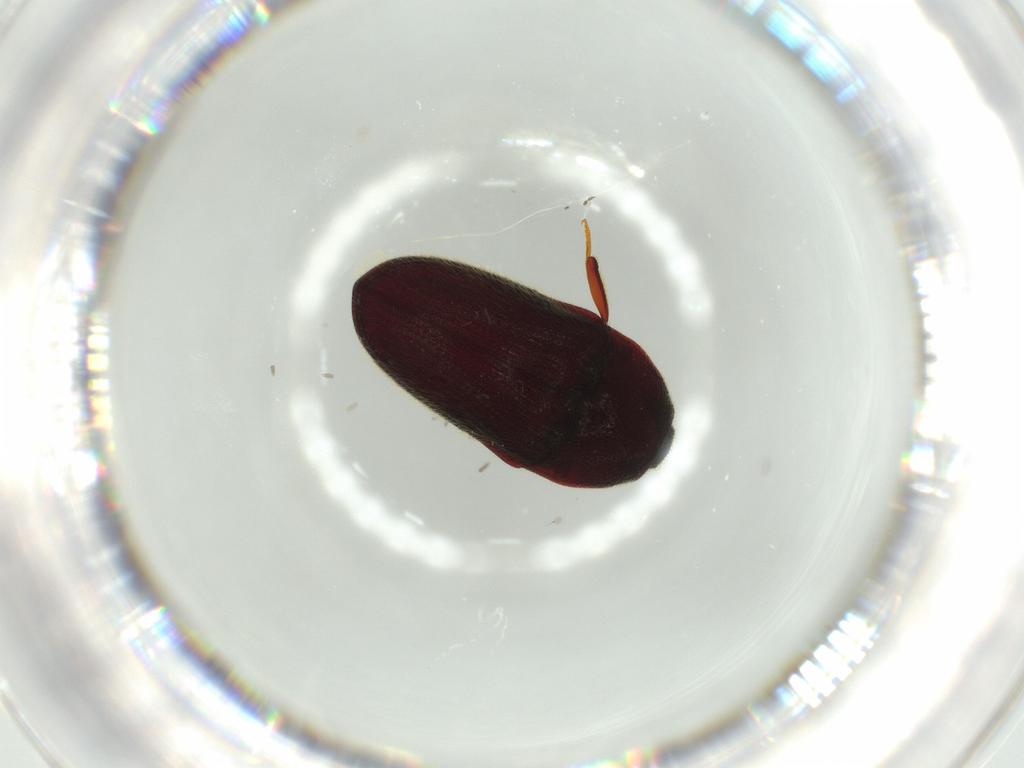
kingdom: Animalia
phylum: Arthropoda
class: Insecta
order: Coleoptera
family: Throscidae
